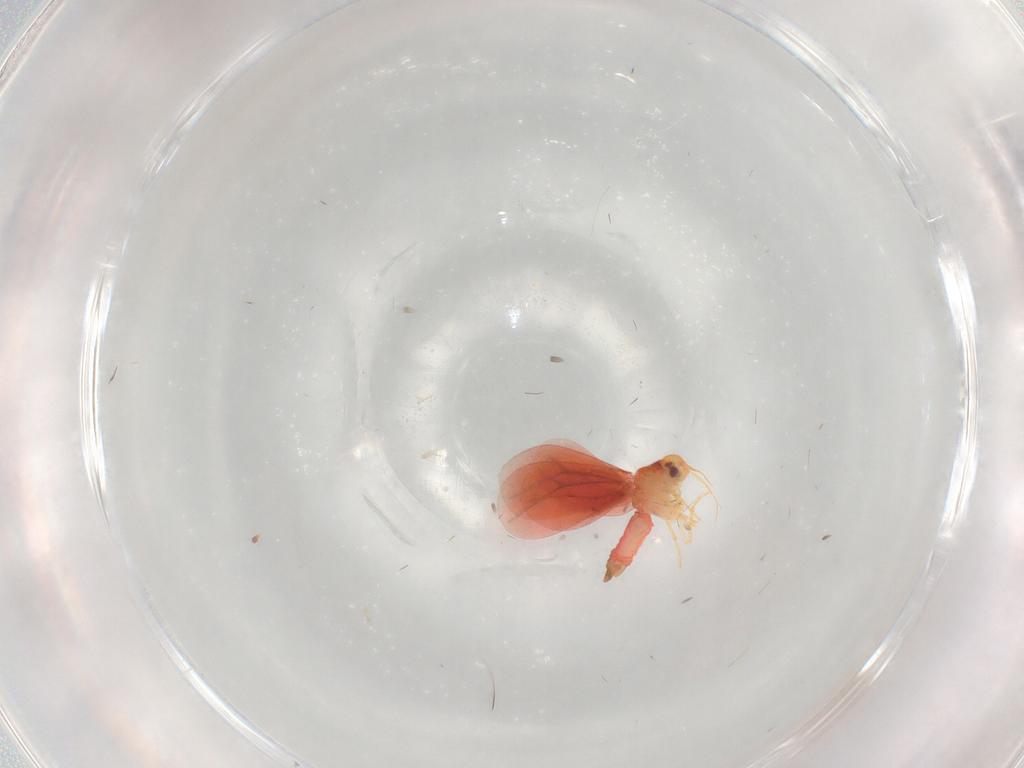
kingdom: Animalia
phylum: Arthropoda
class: Insecta
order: Hemiptera
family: Aleyrodidae
